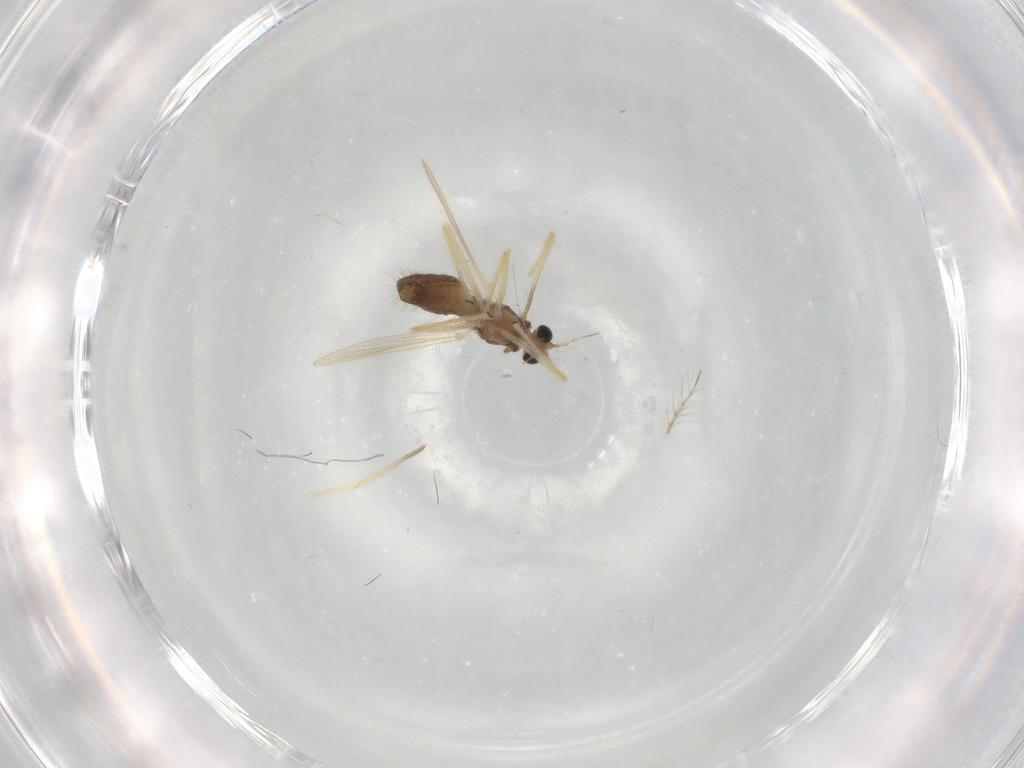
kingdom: Animalia
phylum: Arthropoda
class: Insecta
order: Diptera
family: Chironomidae
